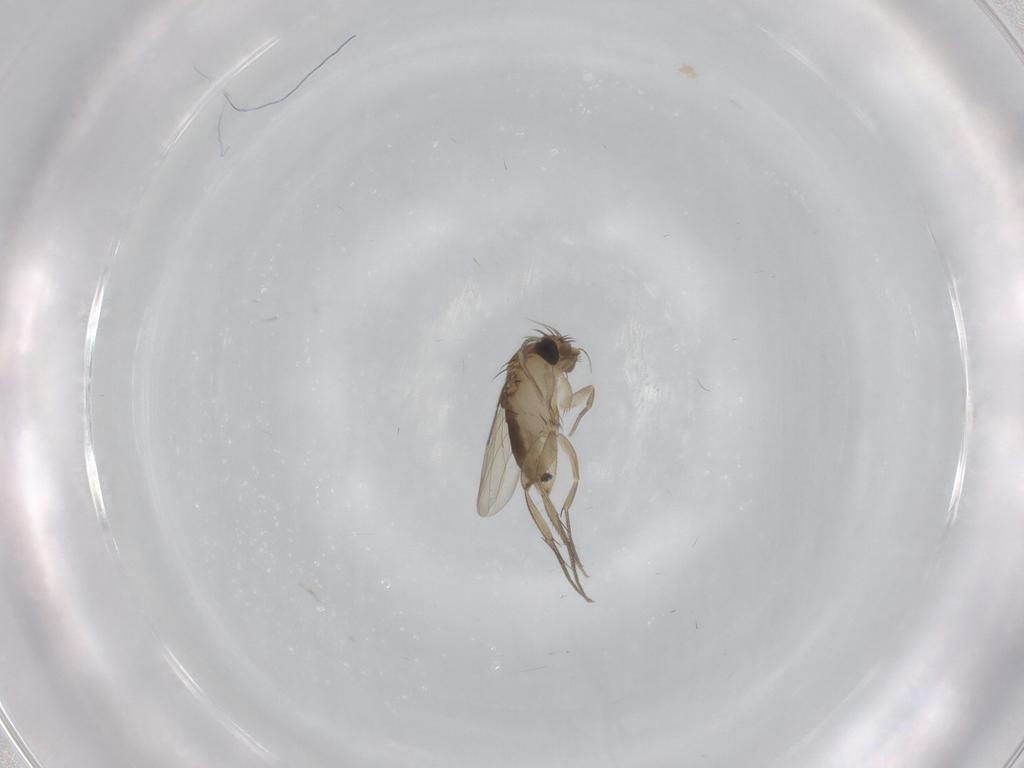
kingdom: Animalia
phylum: Arthropoda
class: Insecta
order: Diptera
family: Phoridae
